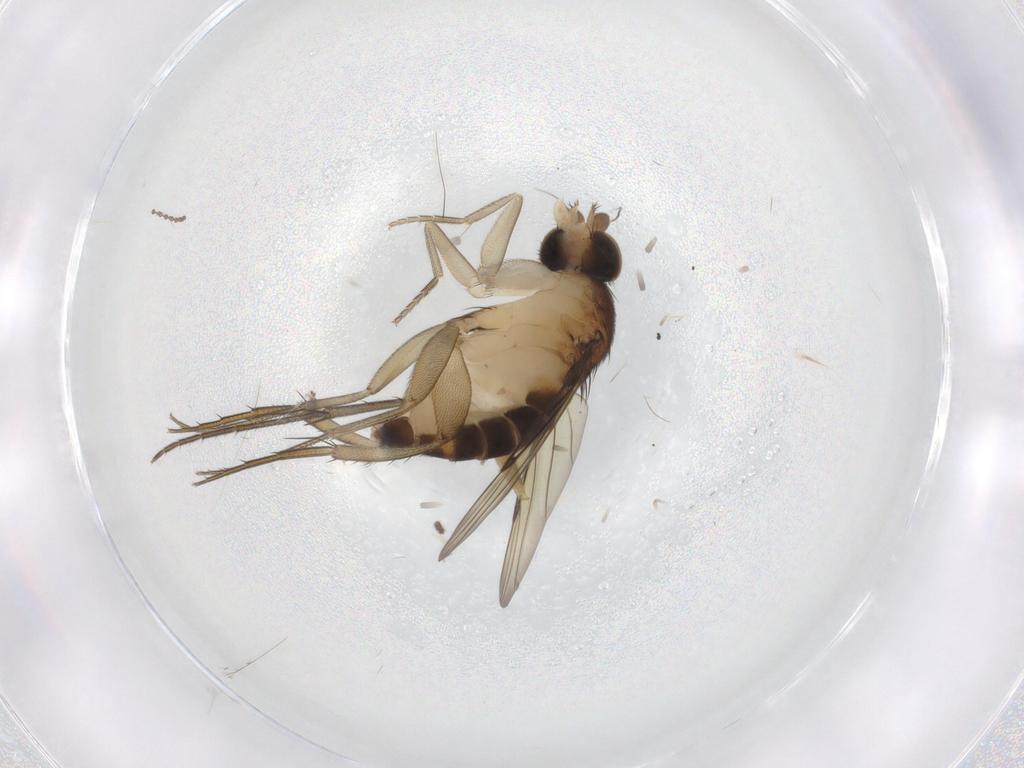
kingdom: Animalia
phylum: Arthropoda
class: Insecta
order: Diptera
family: Mycetophilidae
